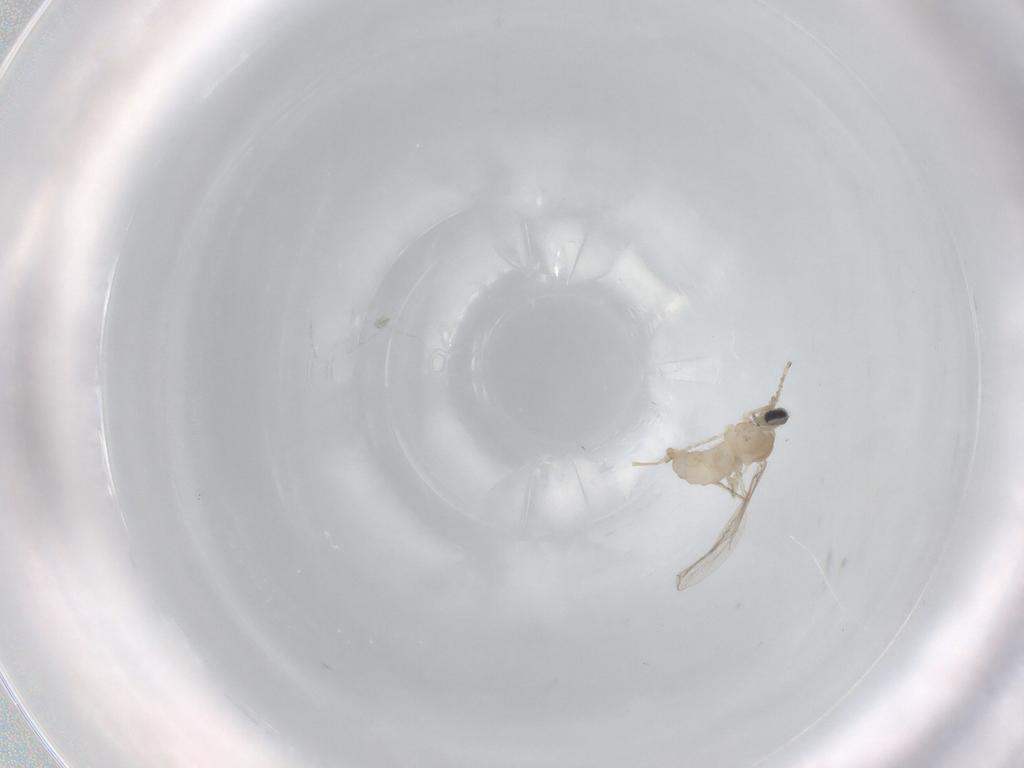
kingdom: Animalia
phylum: Arthropoda
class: Insecta
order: Diptera
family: Cecidomyiidae
